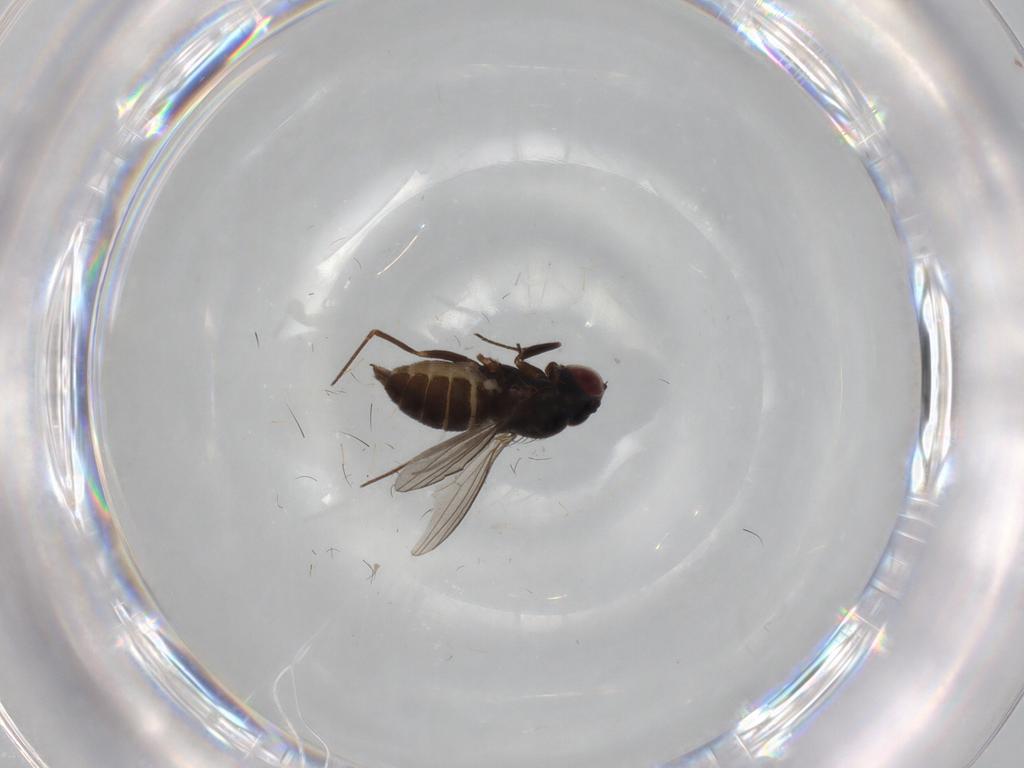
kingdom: Animalia
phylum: Arthropoda
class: Insecta
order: Diptera
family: Dolichopodidae
